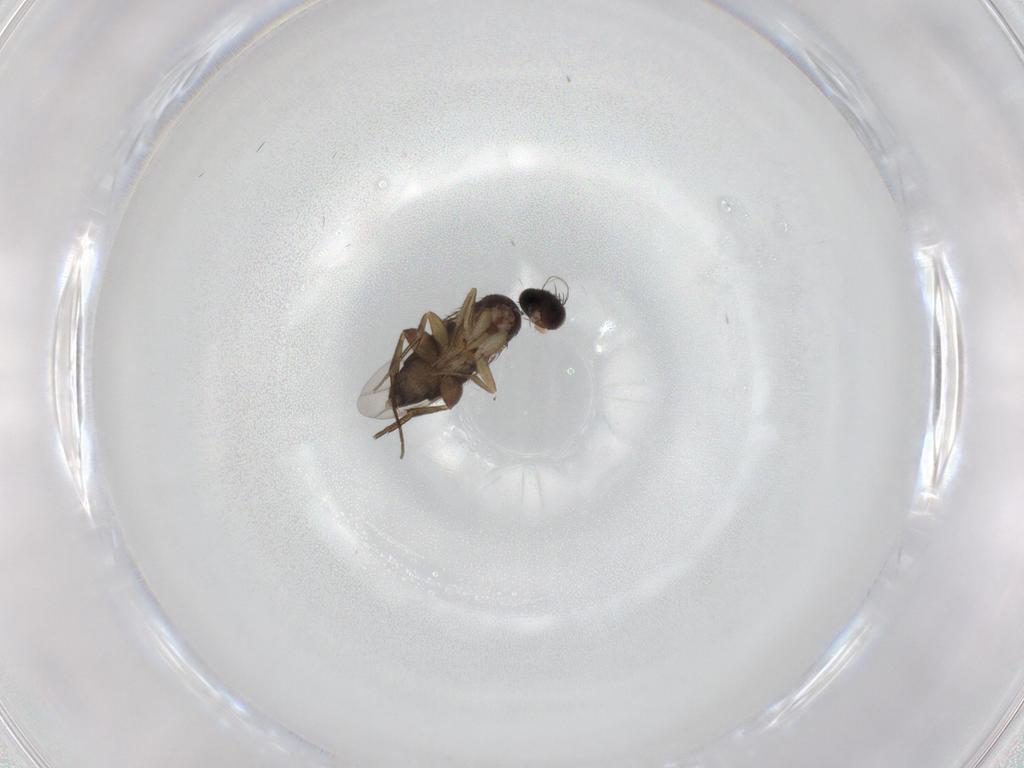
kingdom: Animalia
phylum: Arthropoda
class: Insecta
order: Diptera
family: Phoridae
